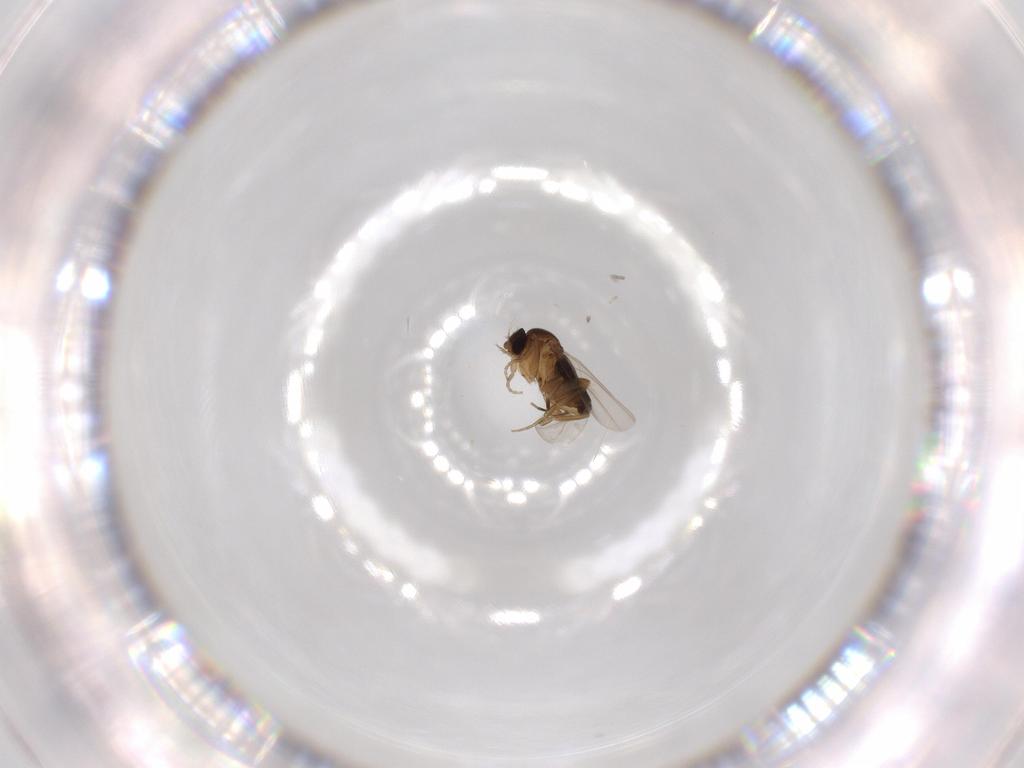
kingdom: Animalia
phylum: Arthropoda
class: Insecta
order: Diptera
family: Phoridae
